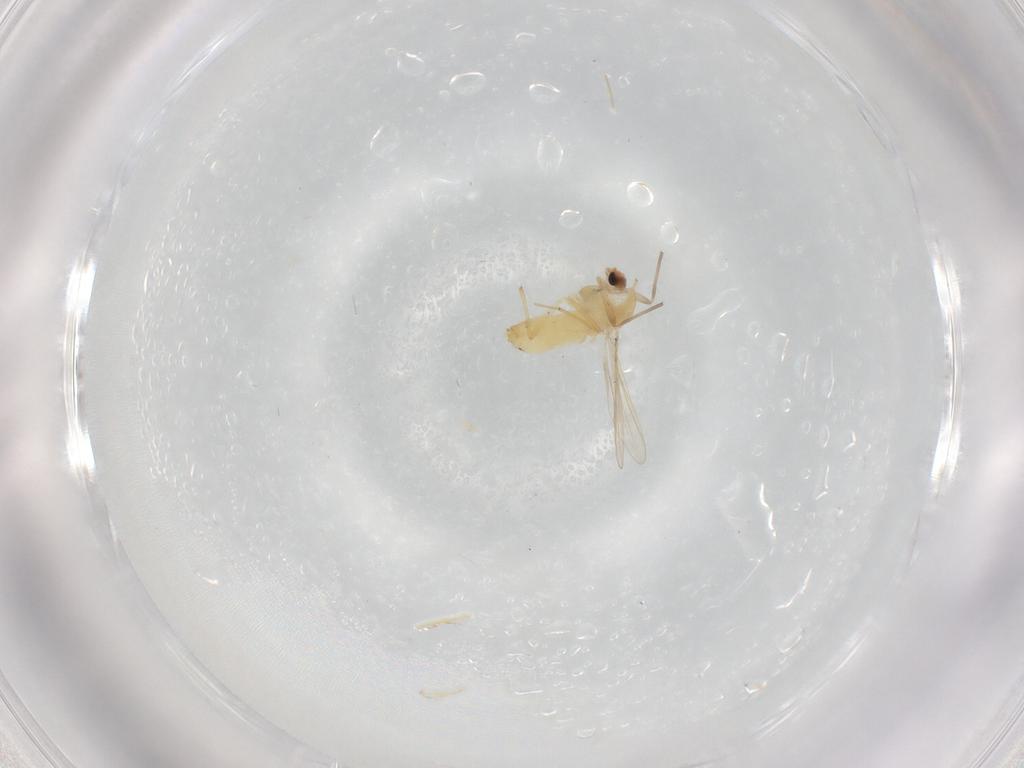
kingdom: Animalia
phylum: Arthropoda
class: Insecta
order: Diptera
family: Chironomidae
